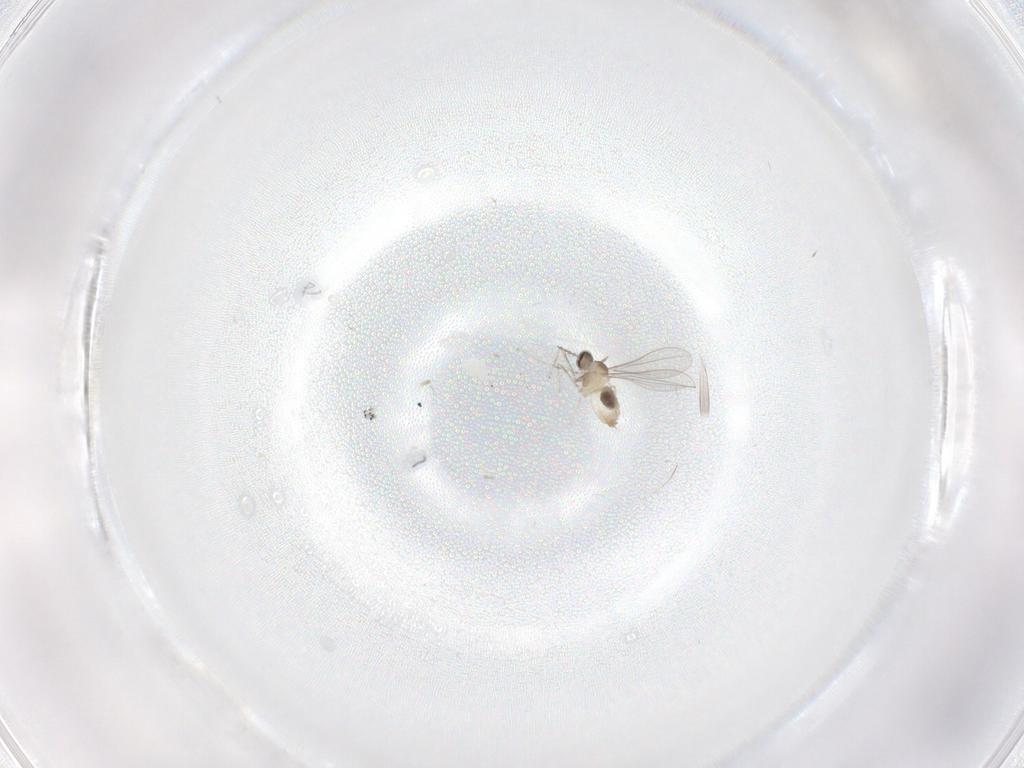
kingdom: Animalia
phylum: Arthropoda
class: Insecta
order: Diptera
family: Cecidomyiidae
